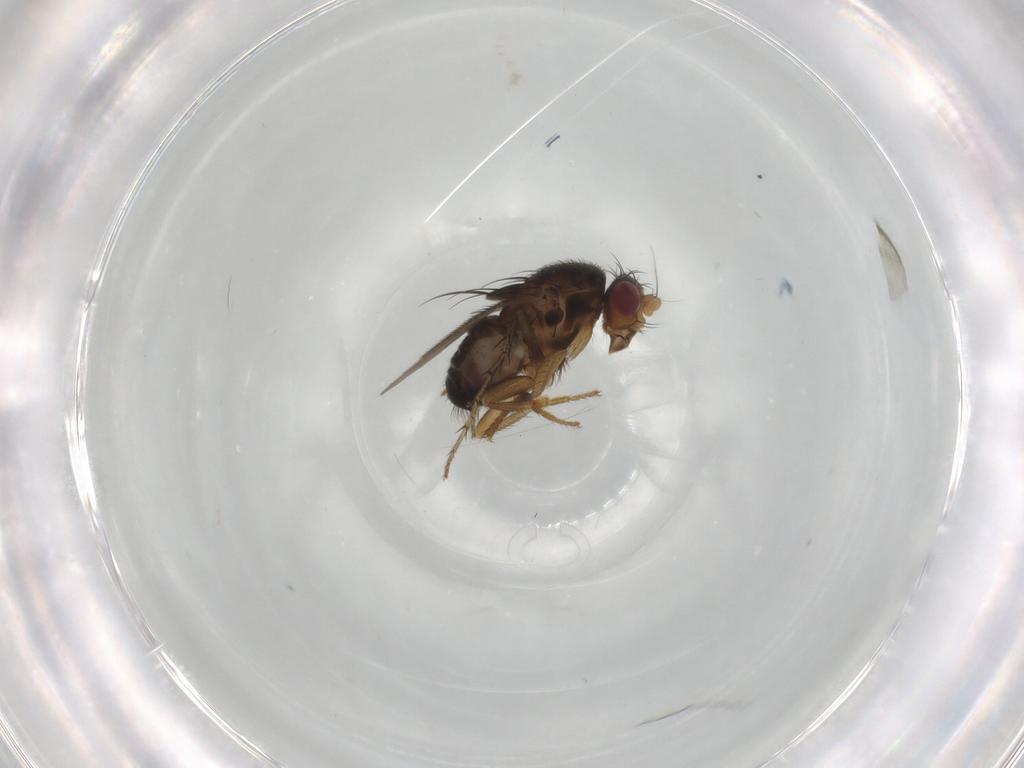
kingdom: Animalia
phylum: Arthropoda
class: Insecta
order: Diptera
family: Sphaeroceridae
